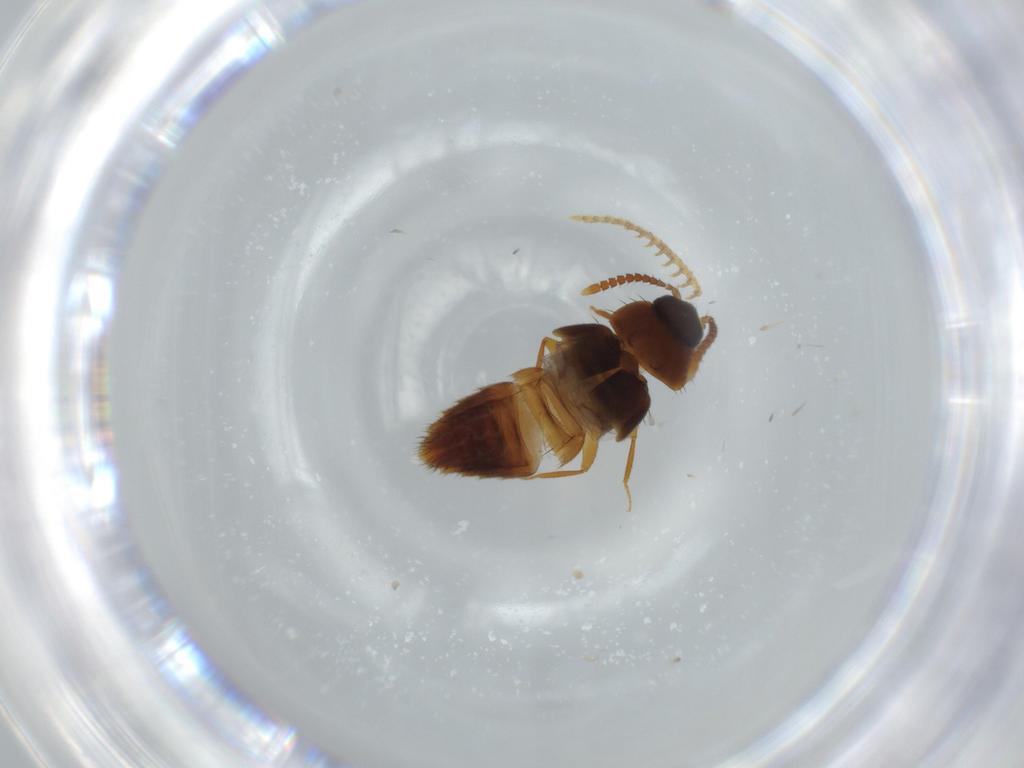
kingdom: Animalia
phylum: Arthropoda
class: Insecta
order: Coleoptera
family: Staphylinidae
